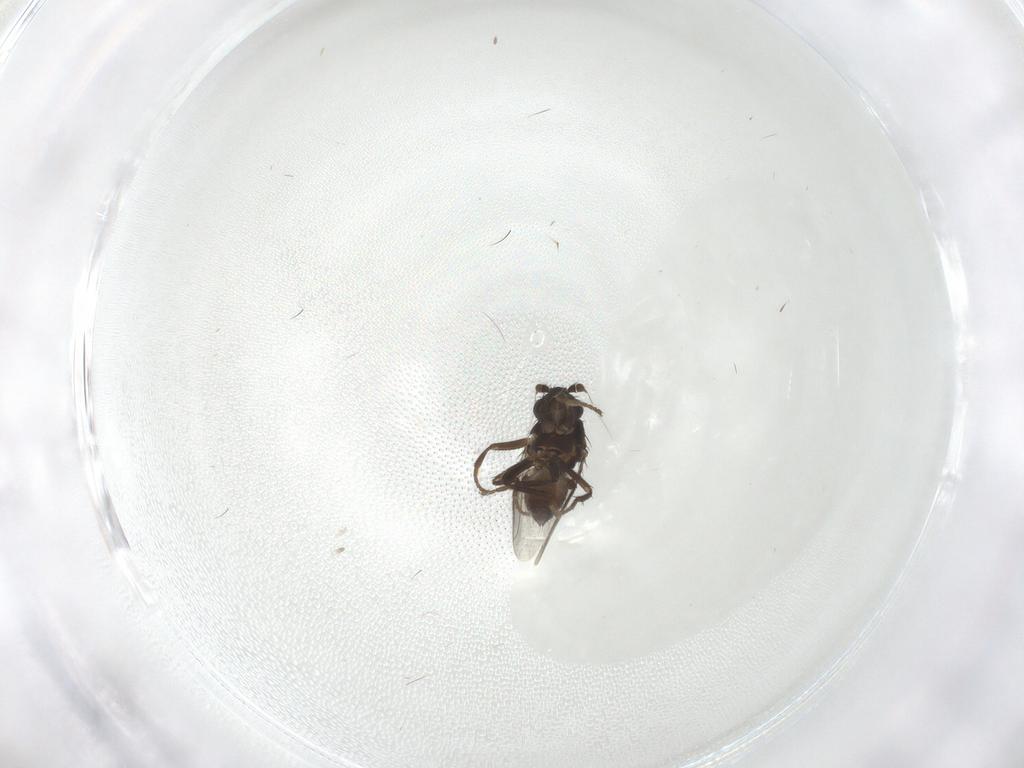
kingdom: Animalia
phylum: Arthropoda
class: Insecta
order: Diptera
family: Sphaeroceridae
